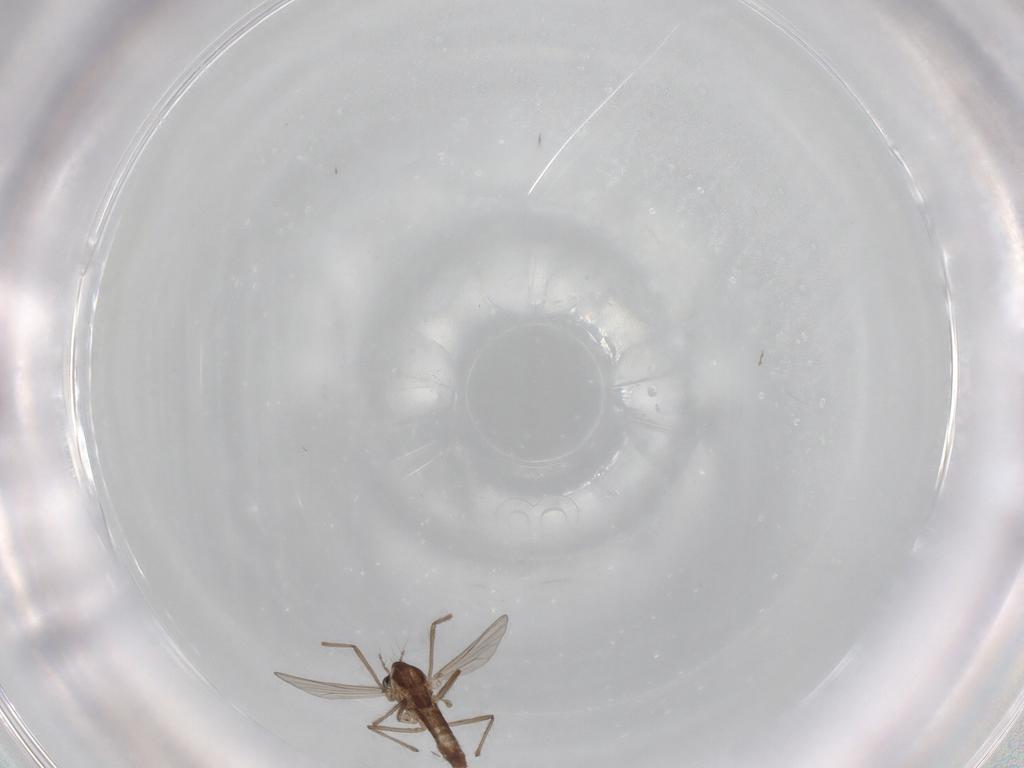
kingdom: Animalia
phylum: Arthropoda
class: Insecta
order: Diptera
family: Chironomidae
